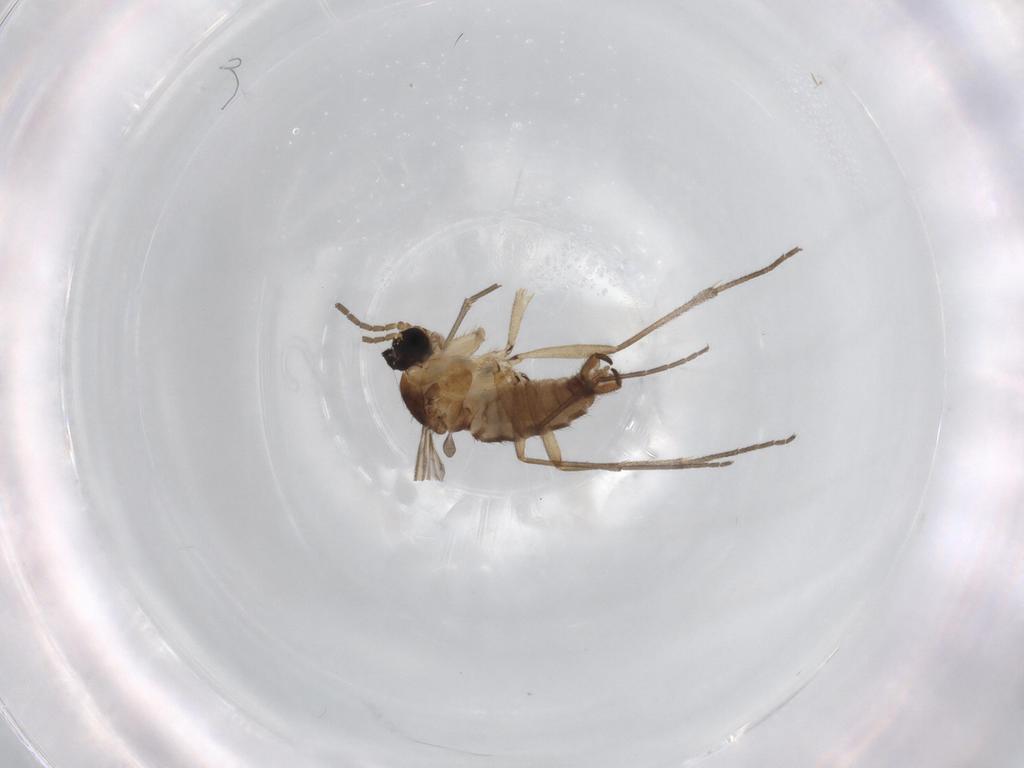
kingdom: Animalia
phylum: Arthropoda
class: Insecta
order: Diptera
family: Sciaridae
